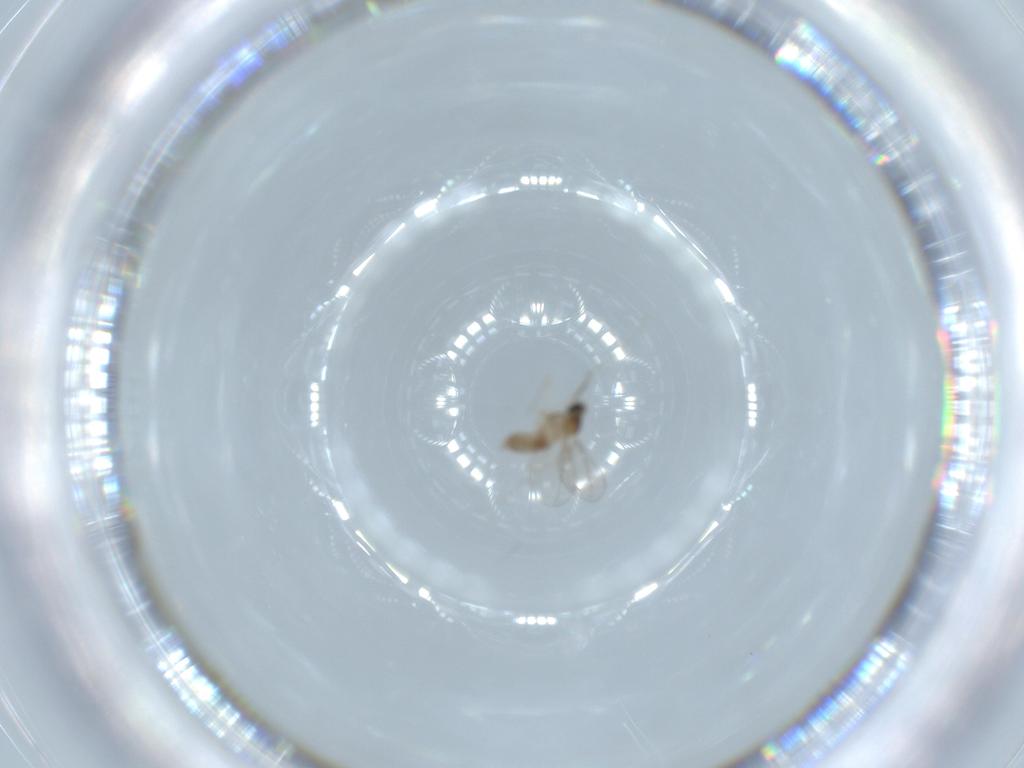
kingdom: Animalia
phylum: Arthropoda
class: Insecta
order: Diptera
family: Cecidomyiidae
